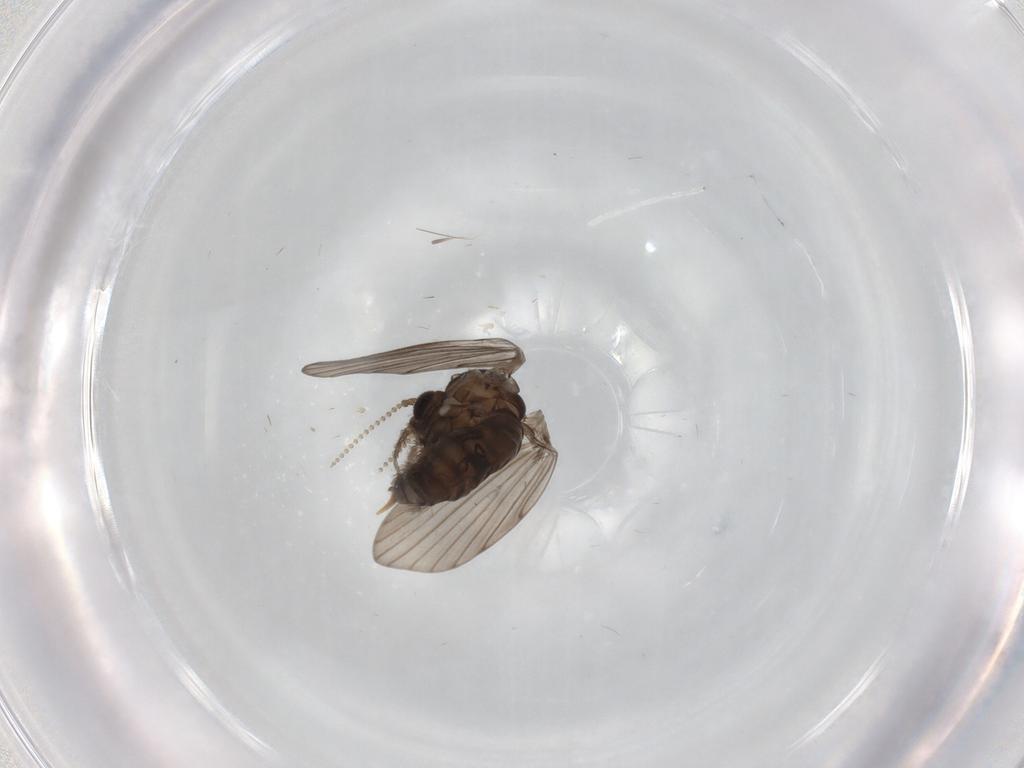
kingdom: Animalia
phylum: Arthropoda
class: Insecta
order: Diptera
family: Psychodidae
